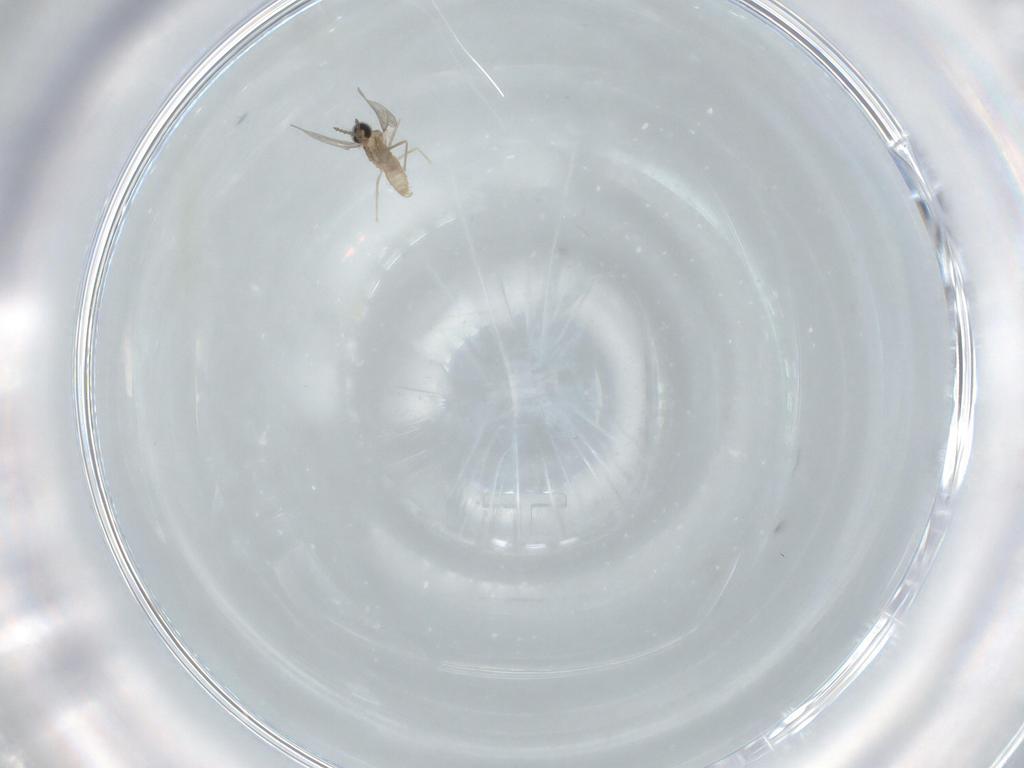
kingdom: Animalia
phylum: Arthropoda
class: Insecta
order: Diptera
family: Cecidomyiidae
